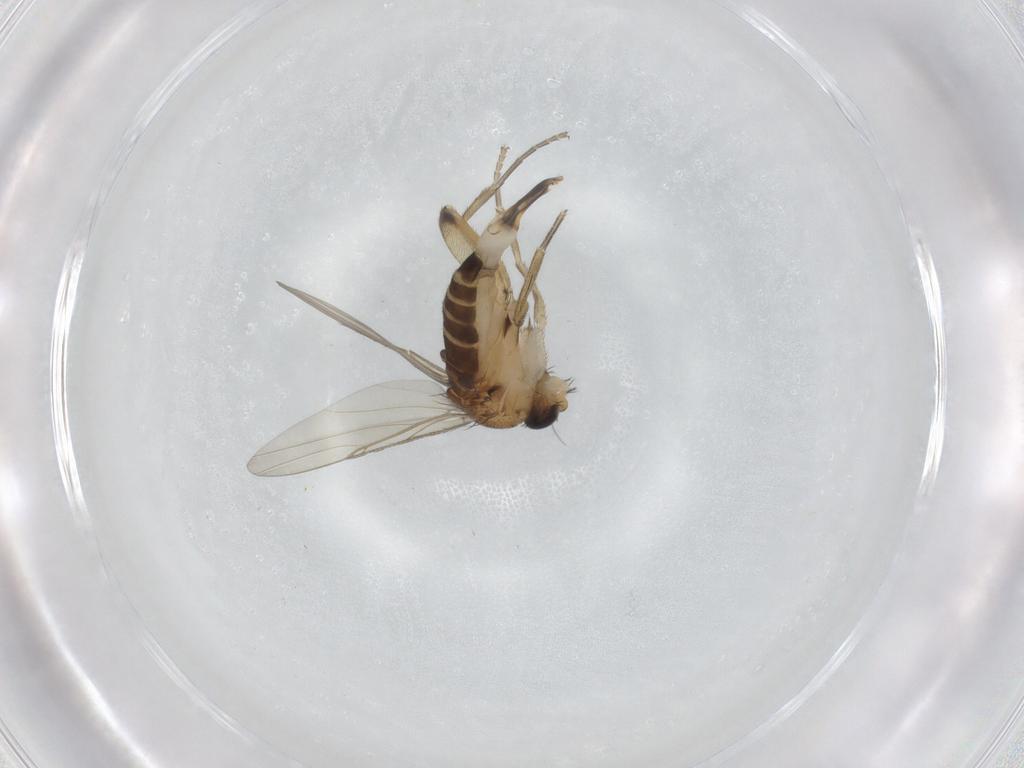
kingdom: Animalia
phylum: Arthropoda
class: Insecta
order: Diptera
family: Phoridae
